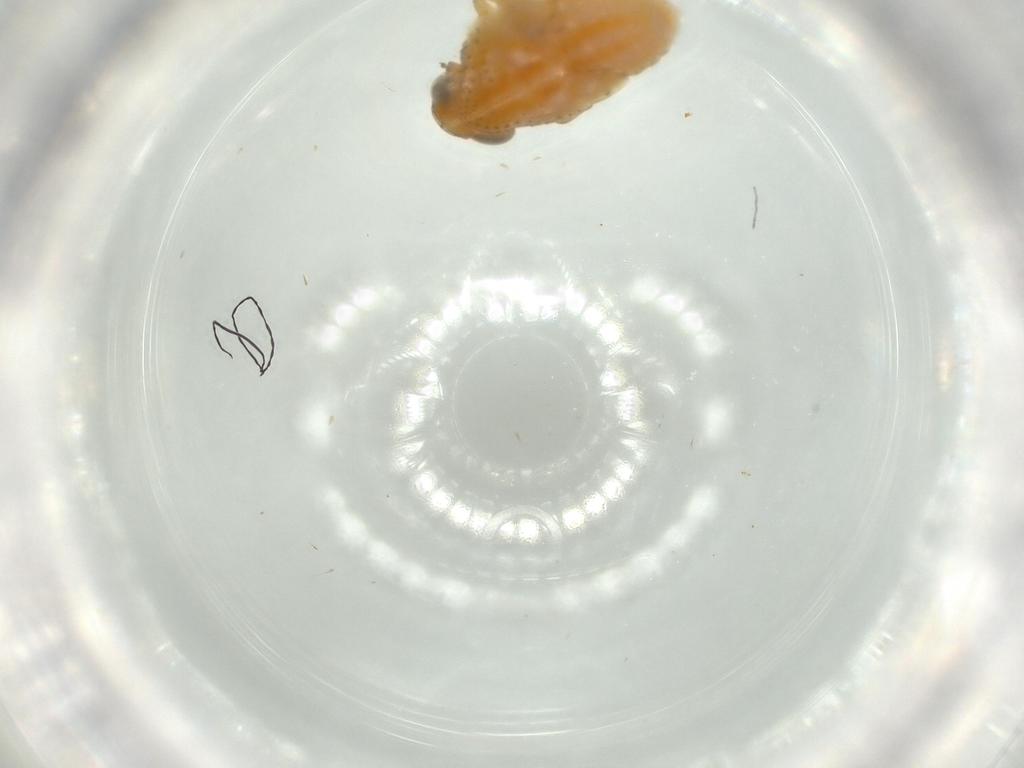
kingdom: Animalia
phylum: Arthropoda
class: Insecta
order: Hemiptera
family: Issidae
